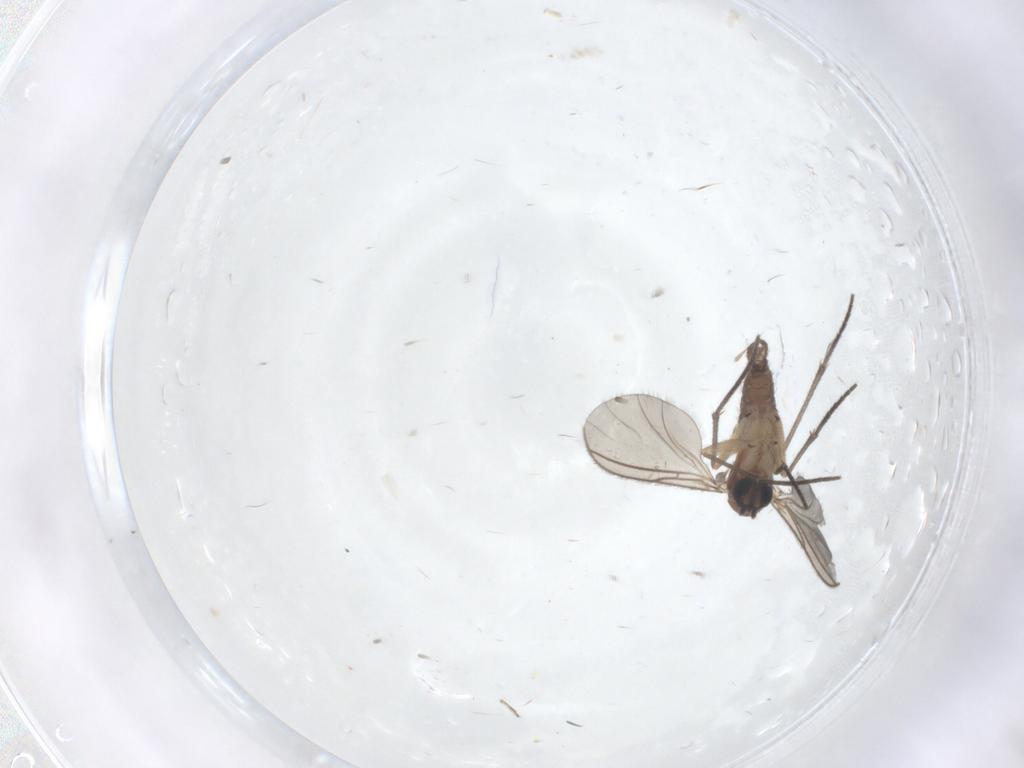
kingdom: Animalia
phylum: Arthropoda
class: Insecta
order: Diptera
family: Sciaridae
